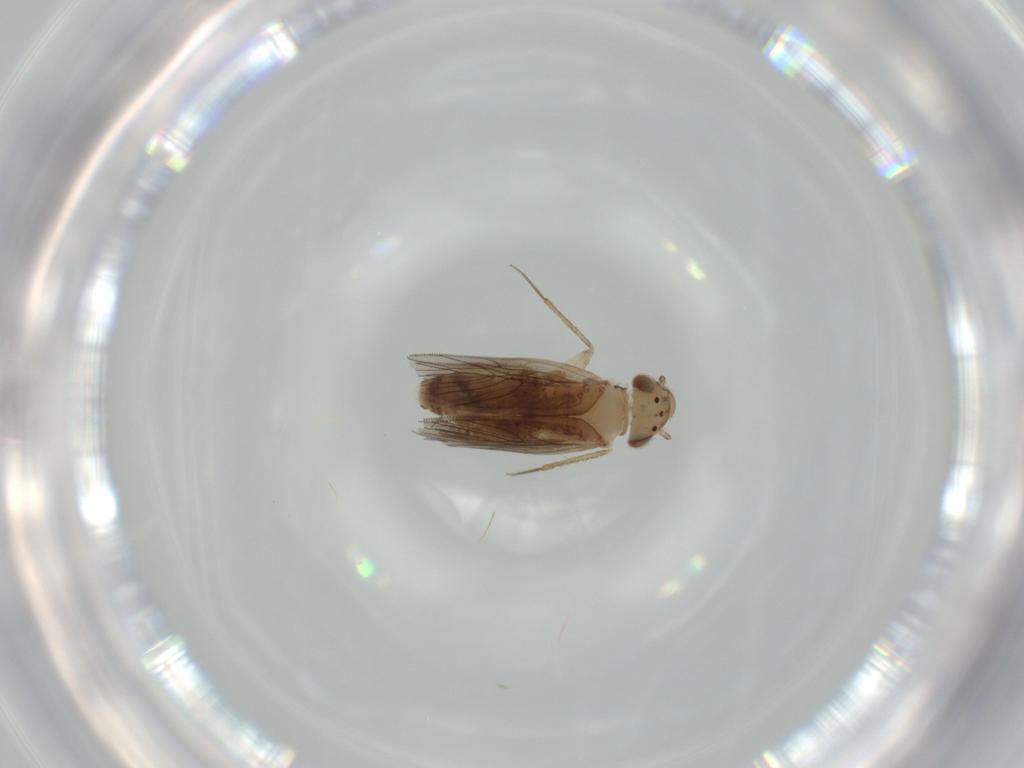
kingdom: Animalia
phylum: Arthropoda
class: Insecta
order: Psocodea
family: Lepidopsocidae
